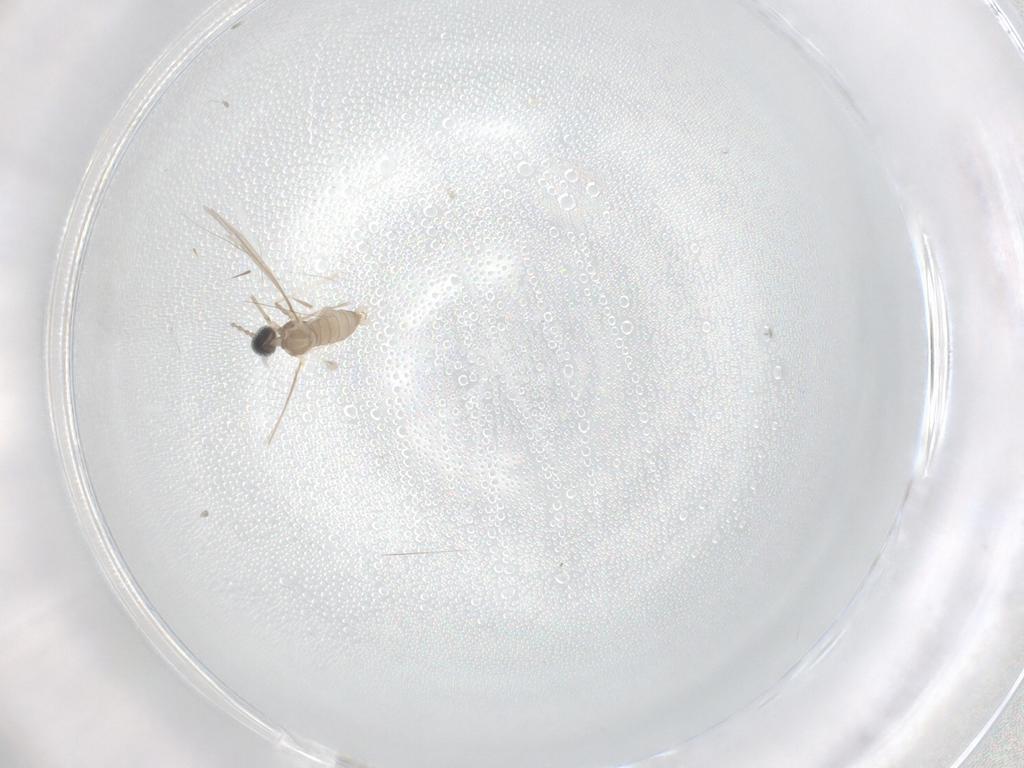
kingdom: Animalia
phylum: Arthropoda
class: Insecta
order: Diptera
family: Cecidomyiidae
